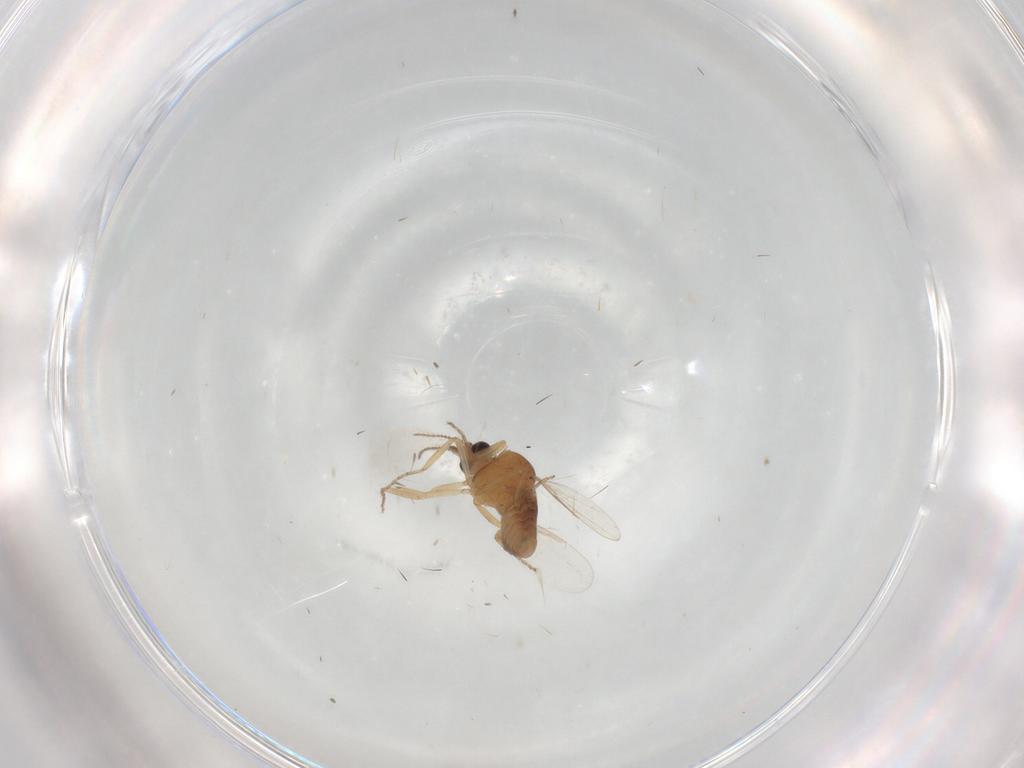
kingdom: Animalia
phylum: Arthropoda
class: Insecta
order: Diptera
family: Ceratopogonidae
